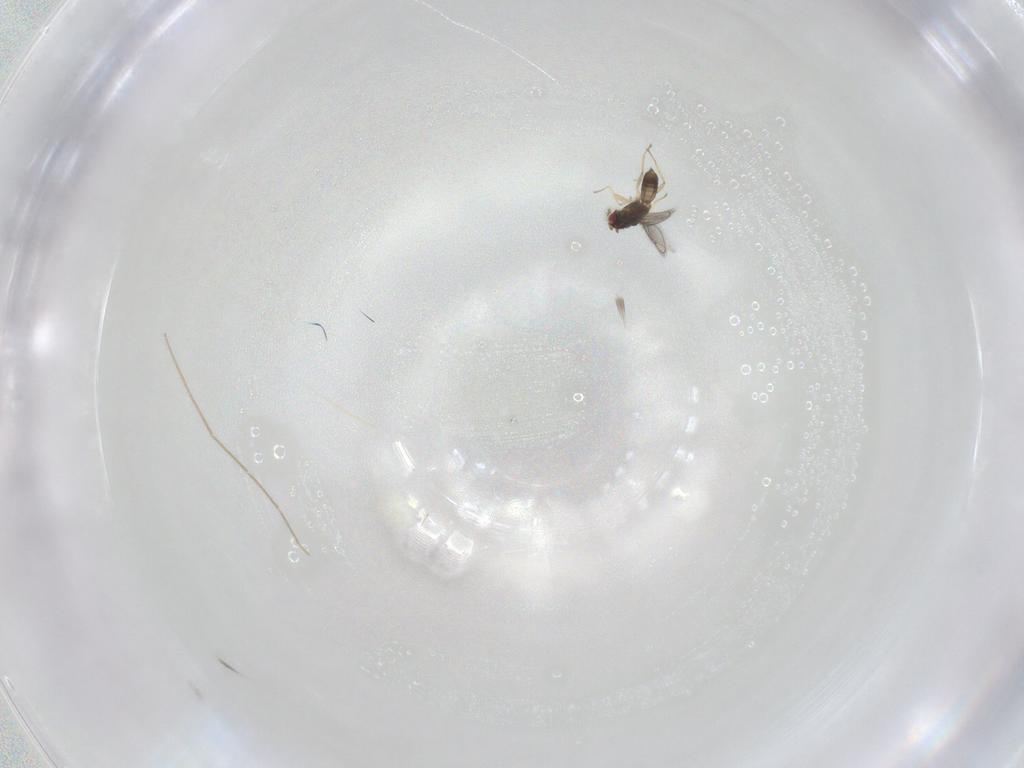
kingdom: Animalia
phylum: Arthropoda
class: Insecta
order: Hymenoptera
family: Eulophidae
